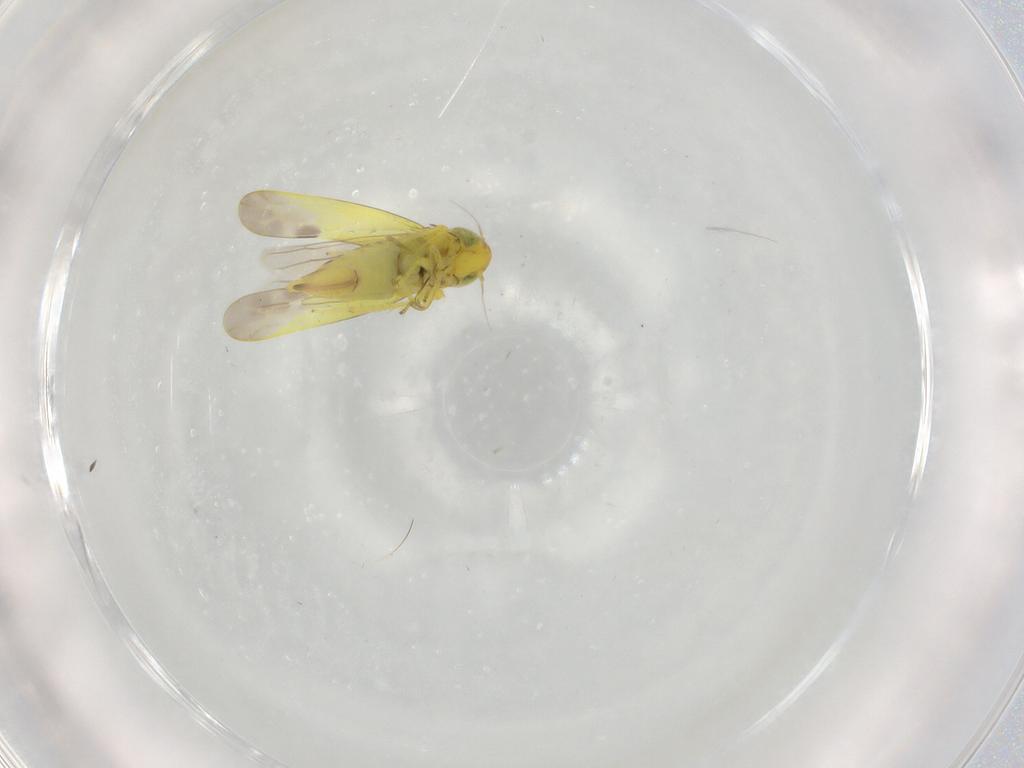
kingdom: Animalia
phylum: Arthropoda
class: Insecta
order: Hemiptera
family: Cicadellidae
